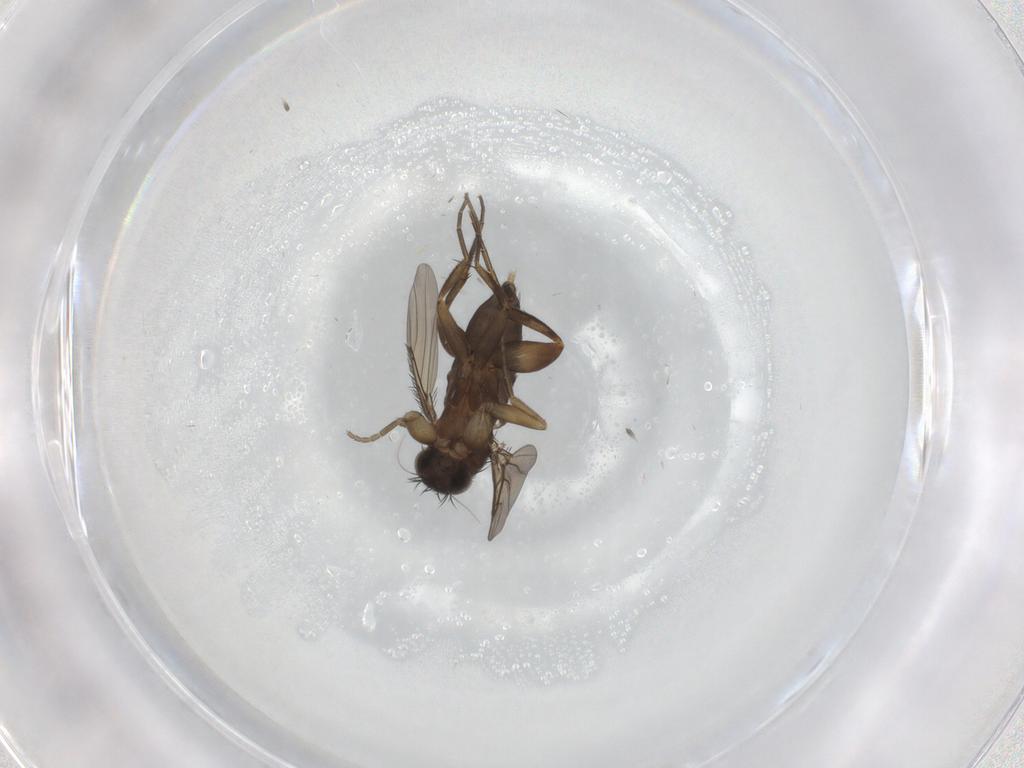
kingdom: Animalia
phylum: Arthropoda
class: Insecta
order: Diptera
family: Phoridae
